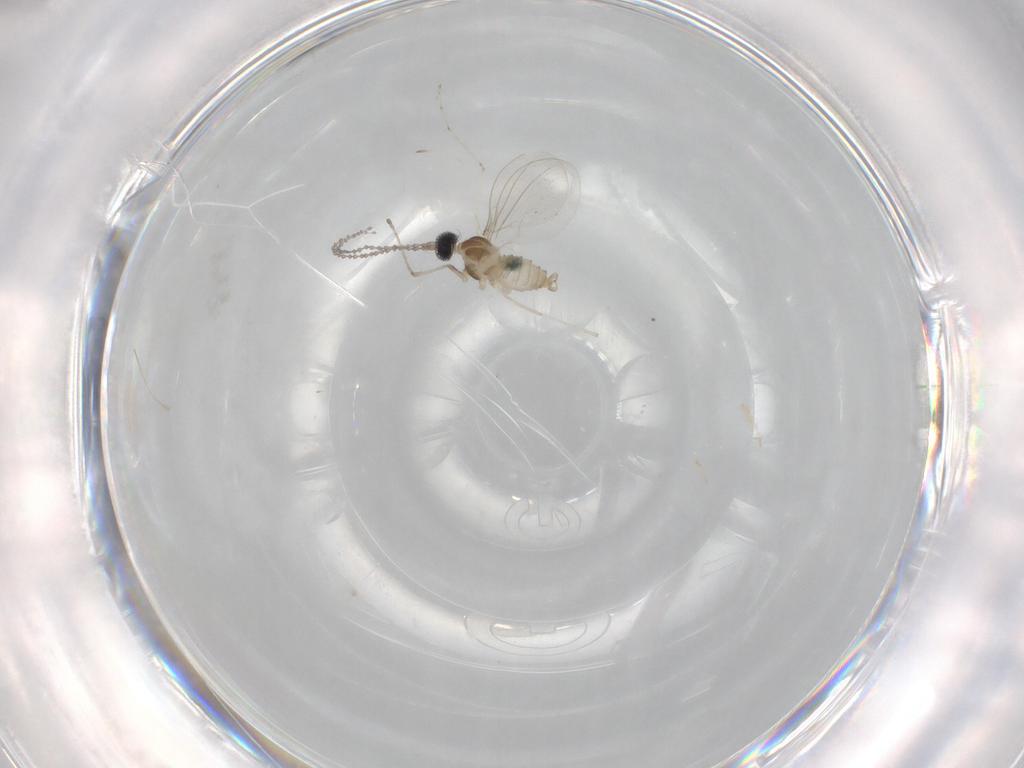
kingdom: Animalia
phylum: Arthropoda
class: Insecta
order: Diptera
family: Cecidomyiidae
